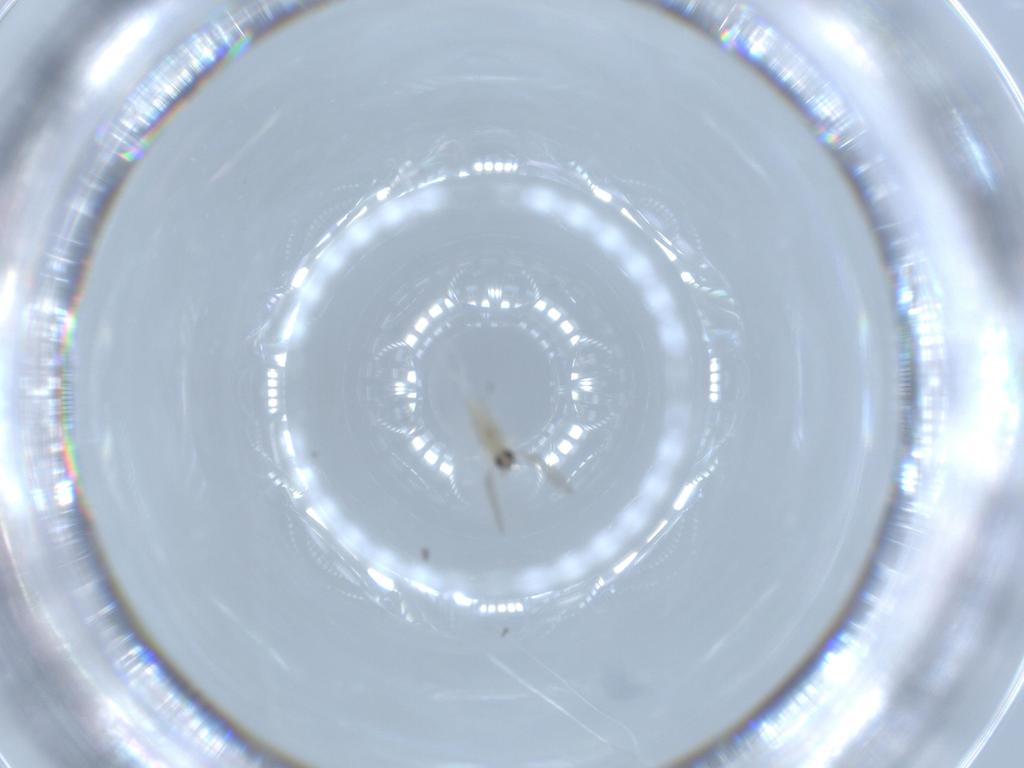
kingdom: Animalia
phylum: Arthropoda
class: Insecta
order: Diptera
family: Cecidomyiidae
